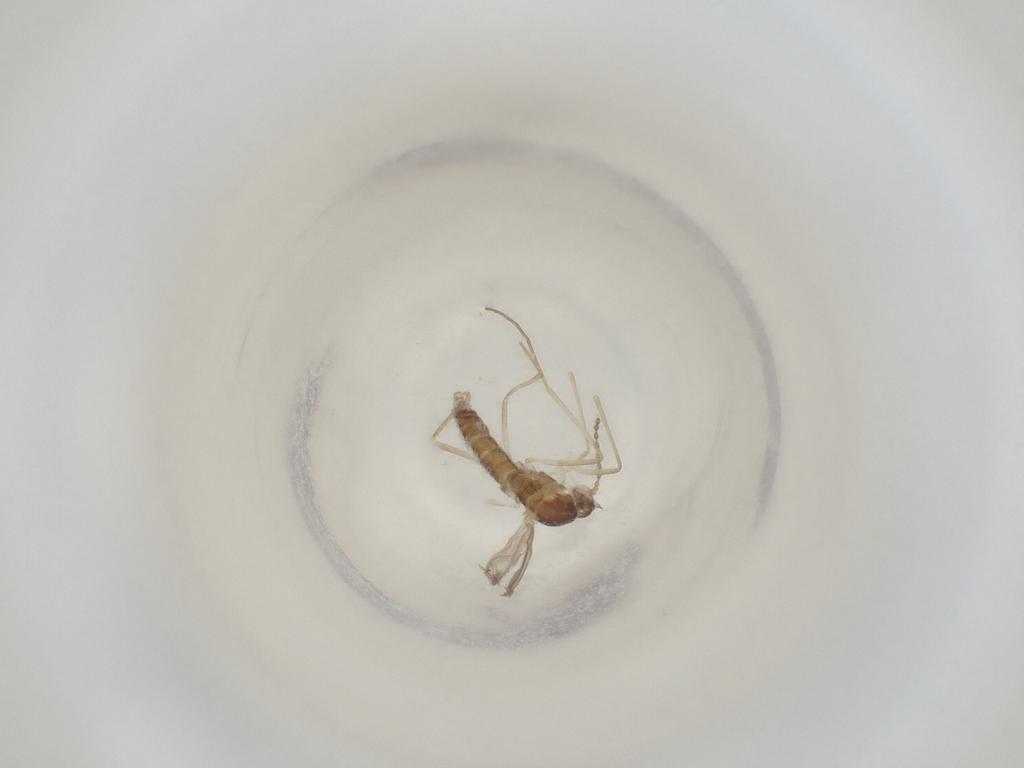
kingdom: Animalia
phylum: Arthropoda
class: Insecta
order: Diptera
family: Cecidomyiidae
